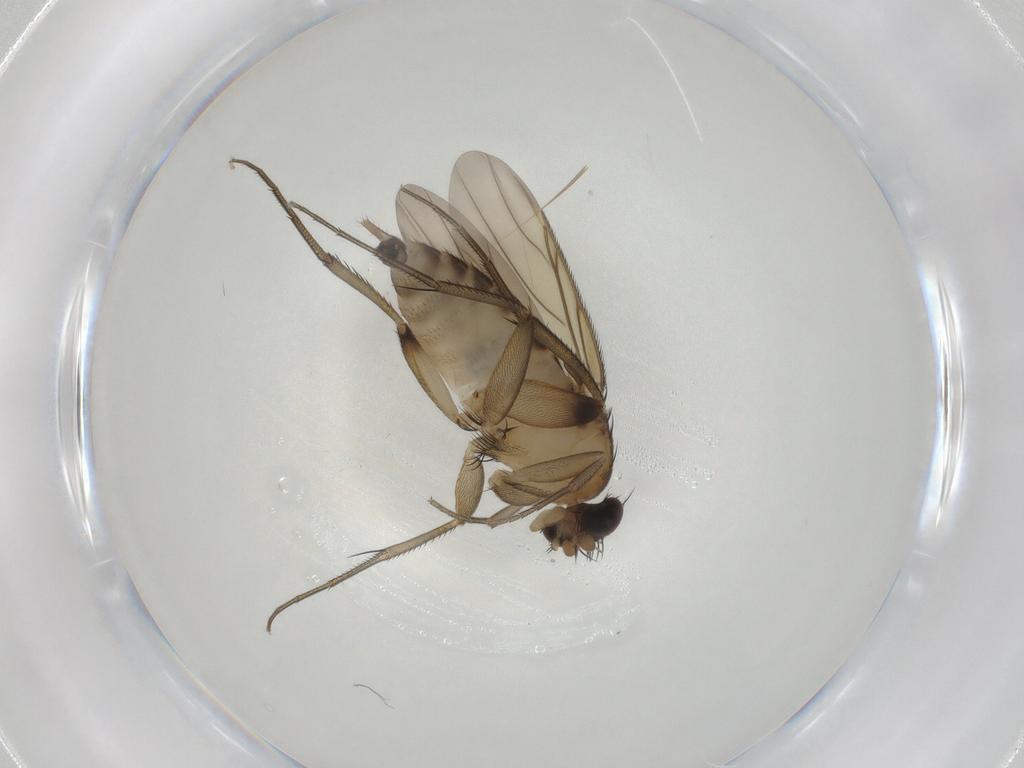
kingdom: Animalia
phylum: Arthropoda
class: Insecta
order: Diptera
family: Phoridae
